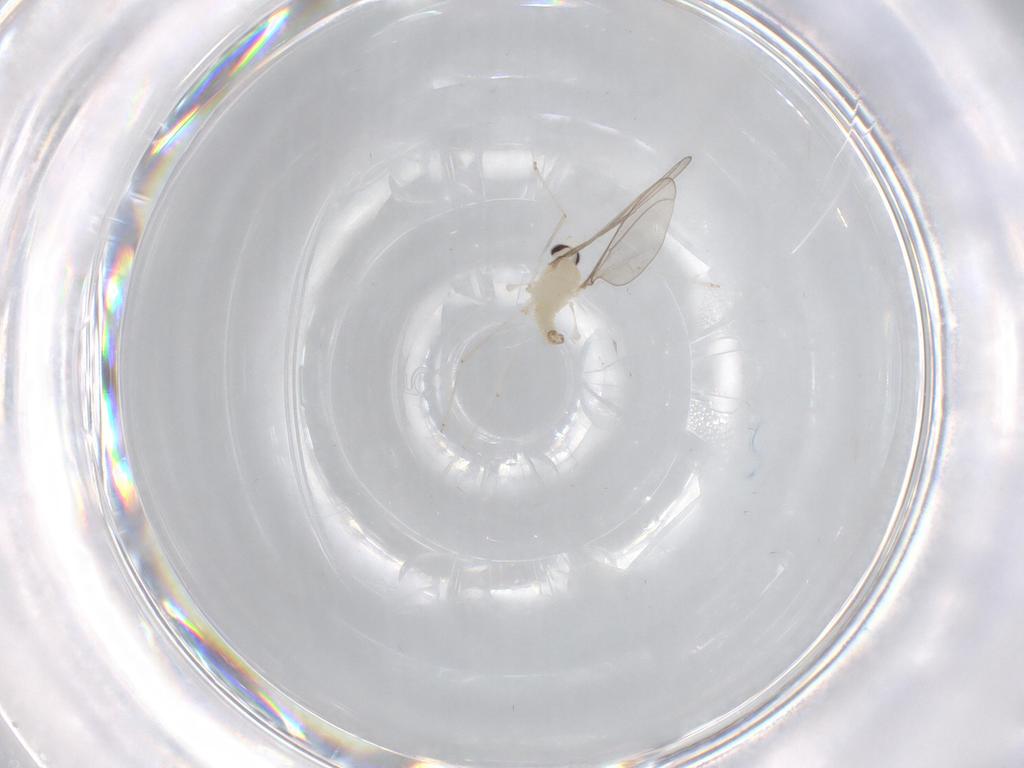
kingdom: Animalia
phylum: Arthropoda
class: Insecta
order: Diptera
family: Cecidomyiidae
